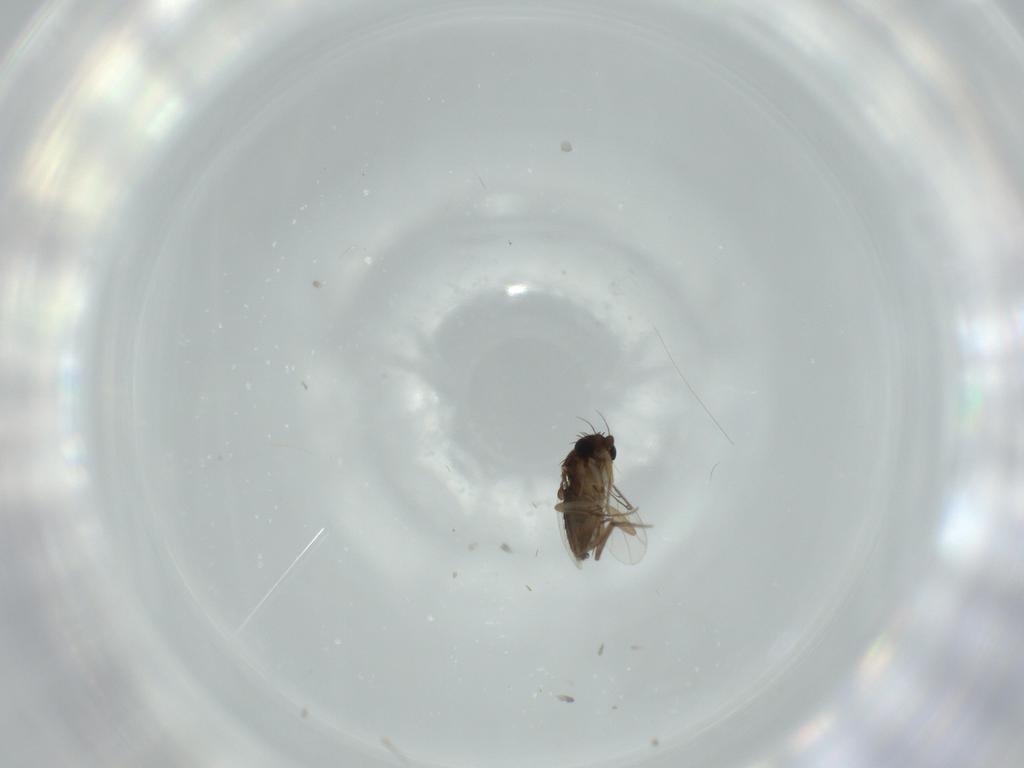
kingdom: Animalia
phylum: Arthropoda
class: Insecta
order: Diptera
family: Phoridae
